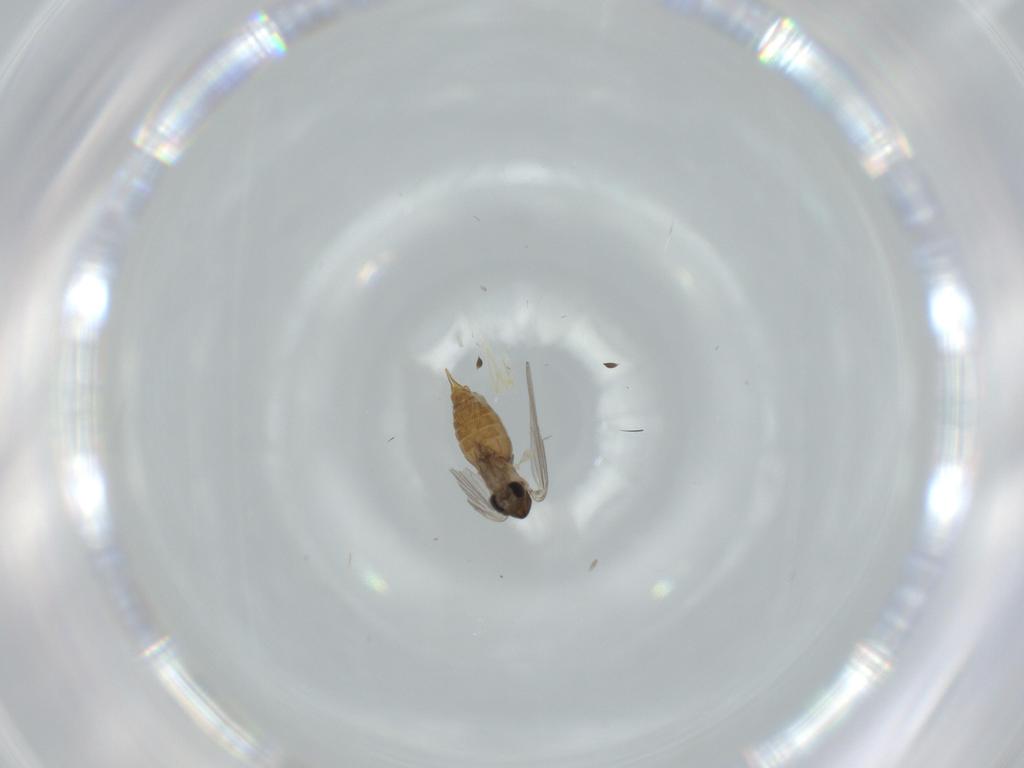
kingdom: Animalia
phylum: Arthropoda
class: Insecta
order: Diptera
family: Psychodidae
